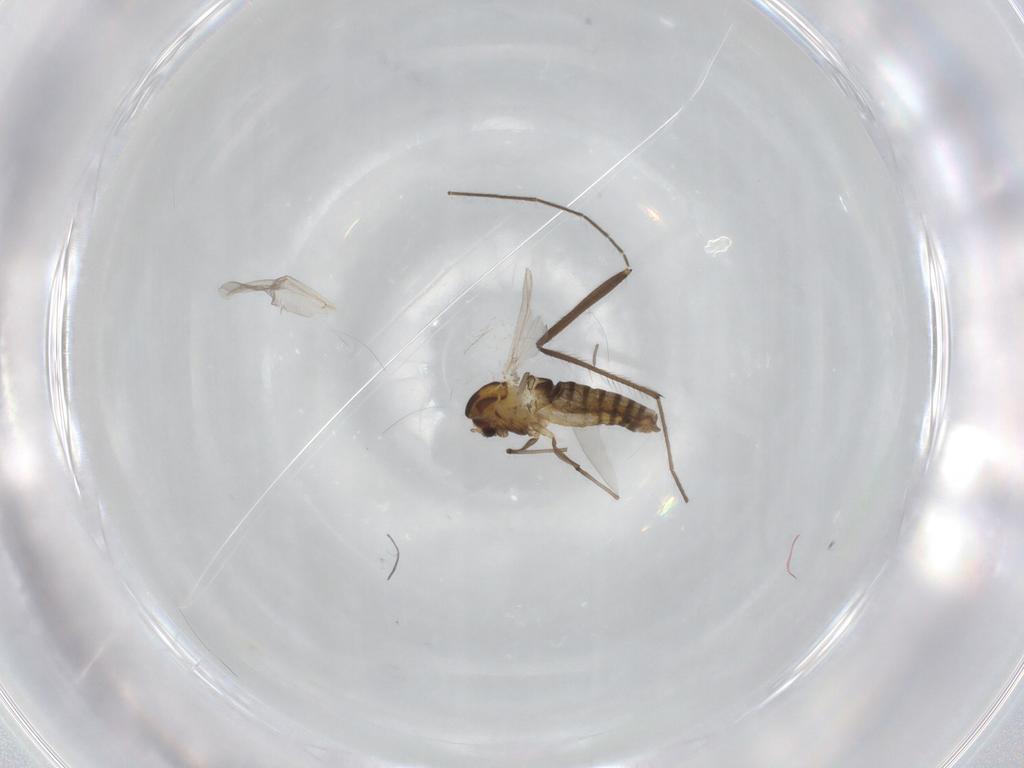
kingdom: Animalia
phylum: Arthropoda
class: Insecta
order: Diptera
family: Chironomidae
